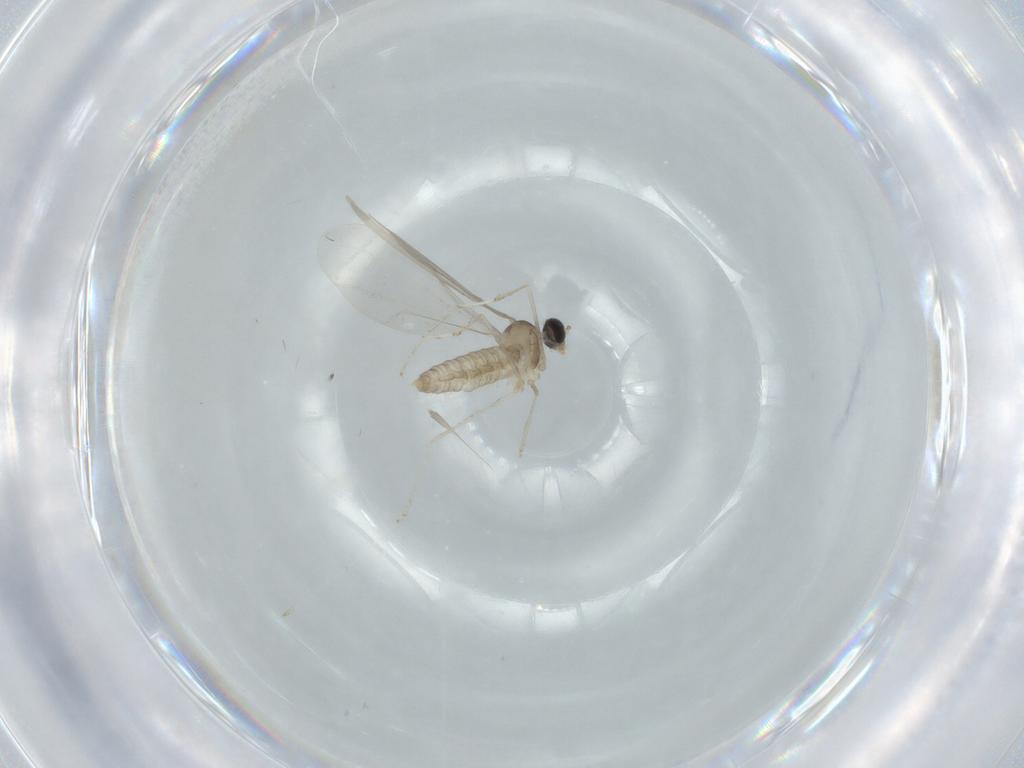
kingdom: Animalia
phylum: Arthropoda
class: Insecta
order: Diptera
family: Cecidomyiidae
